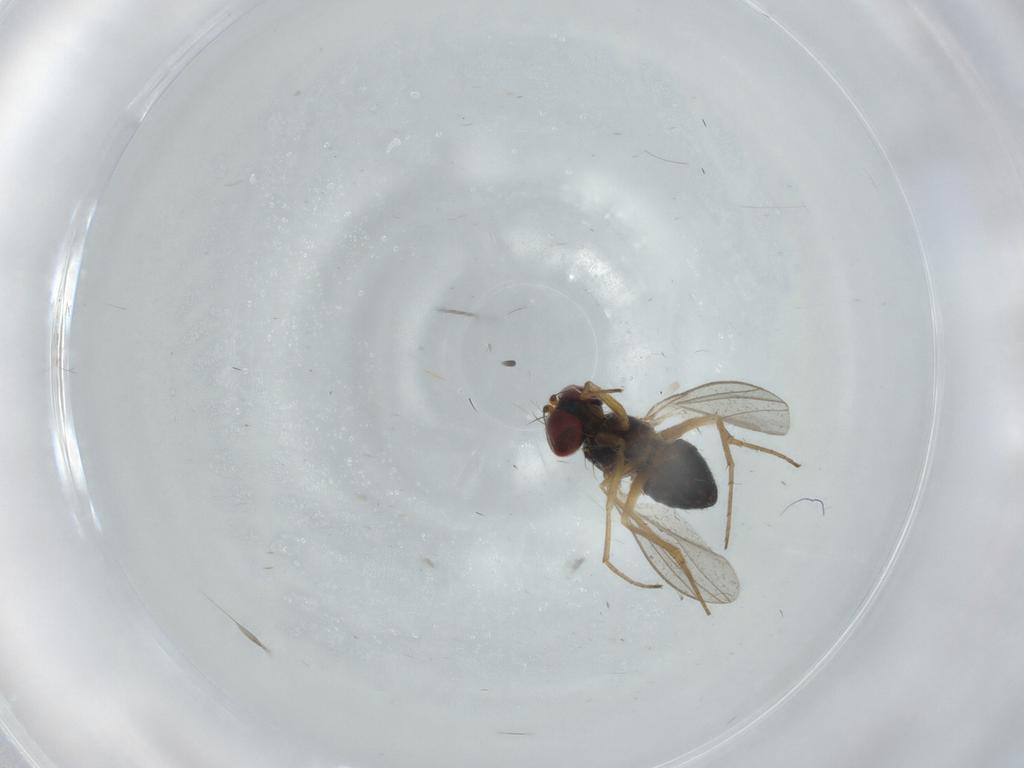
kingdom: Animalia
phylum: Arthropoda
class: Insecta
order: Diptera
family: Dolichopodidae
